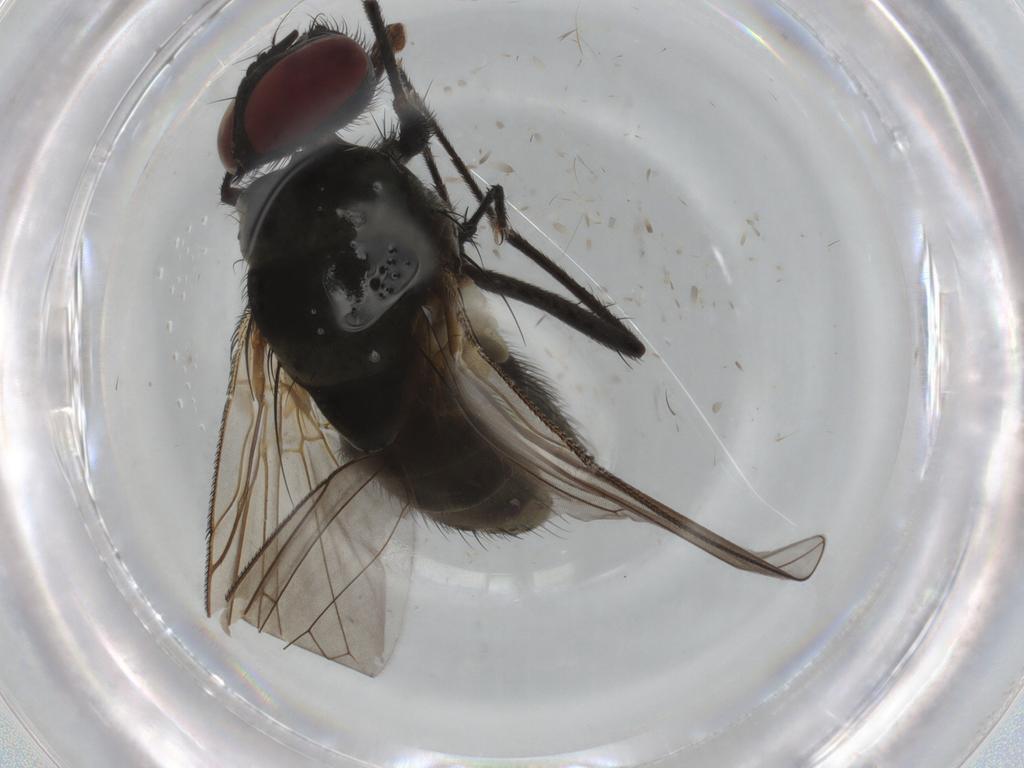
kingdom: Animalia
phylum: Arthropoda
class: Insecta
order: Diptera
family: Muscidae
